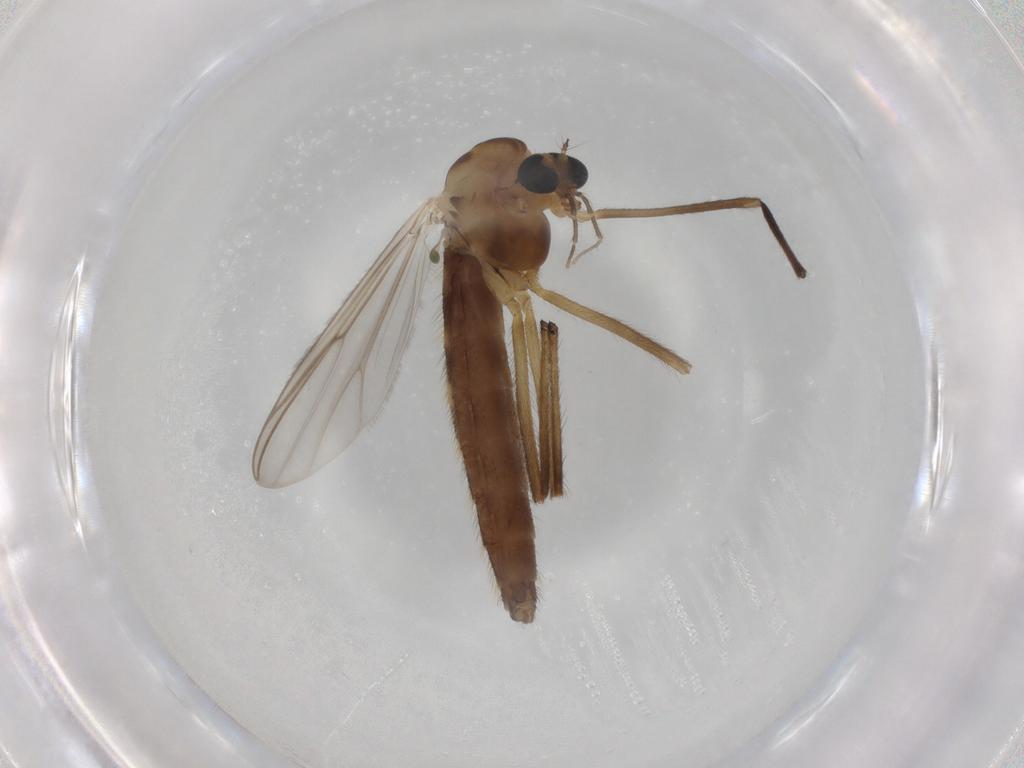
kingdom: Animalia
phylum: Arthropoda
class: Insecta
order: Diptera
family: Chironomidae
